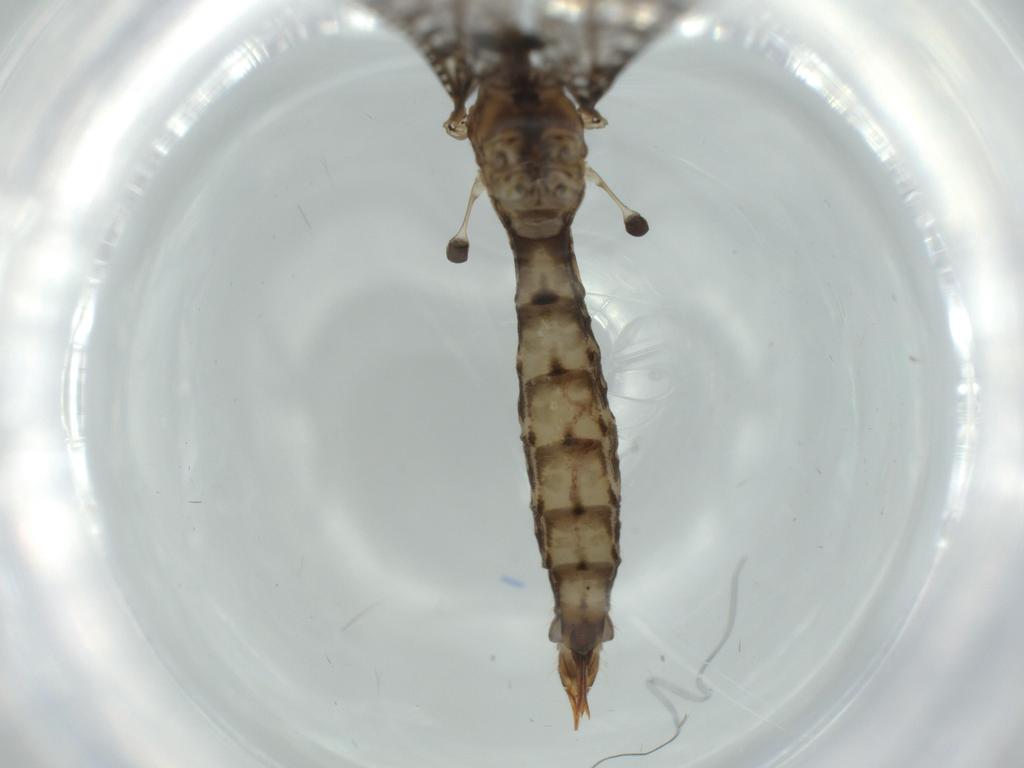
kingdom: Animalia
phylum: Arthropoda
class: Insecta
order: Diptera
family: Limoniidae
